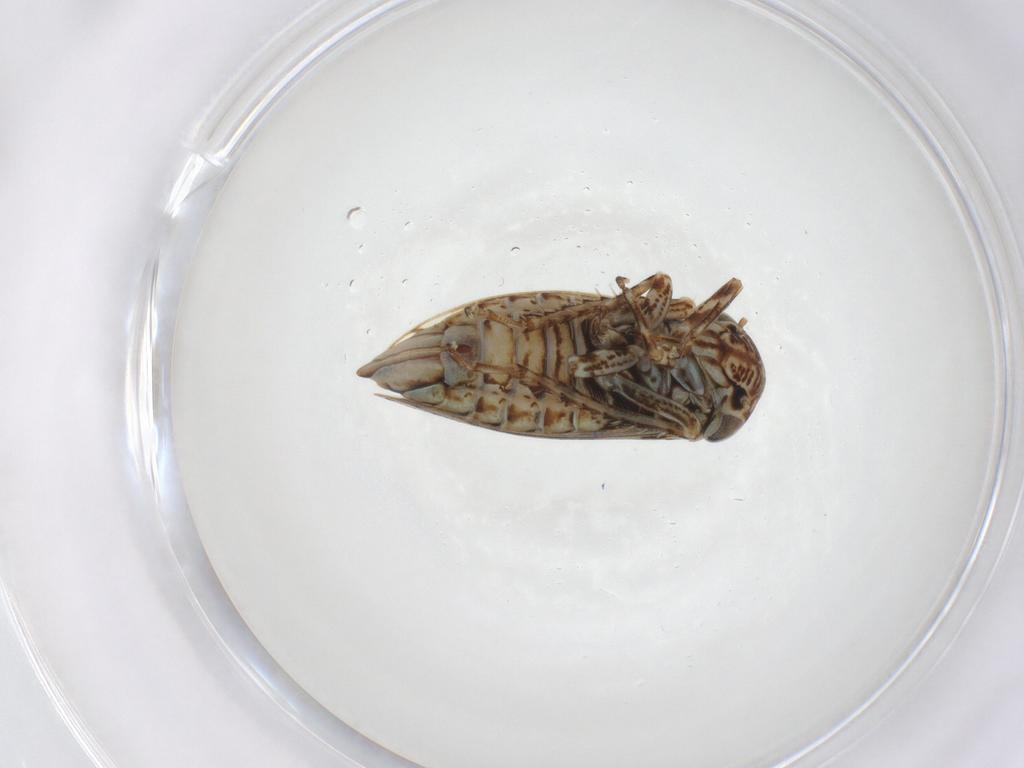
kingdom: Animalia
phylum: Arthropoda
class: Insecta
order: Hemiptera
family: Cicadellidae
